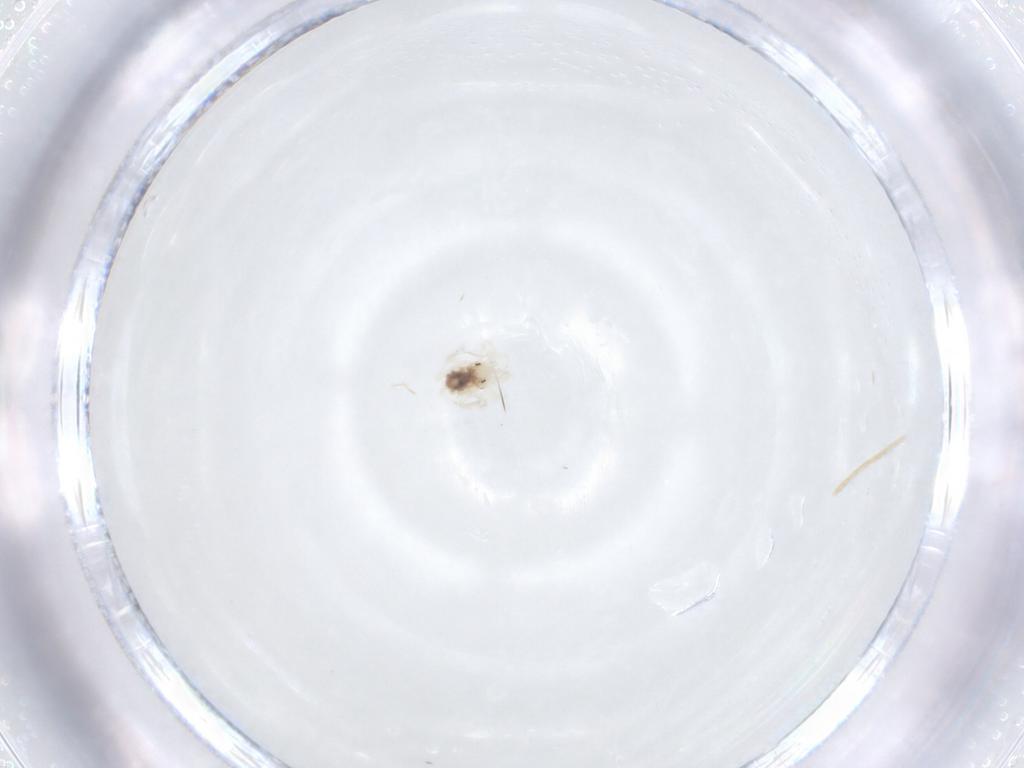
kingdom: Animalia
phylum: Arthropoda
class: Arachnida
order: Trombidiformes
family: Anystidae
